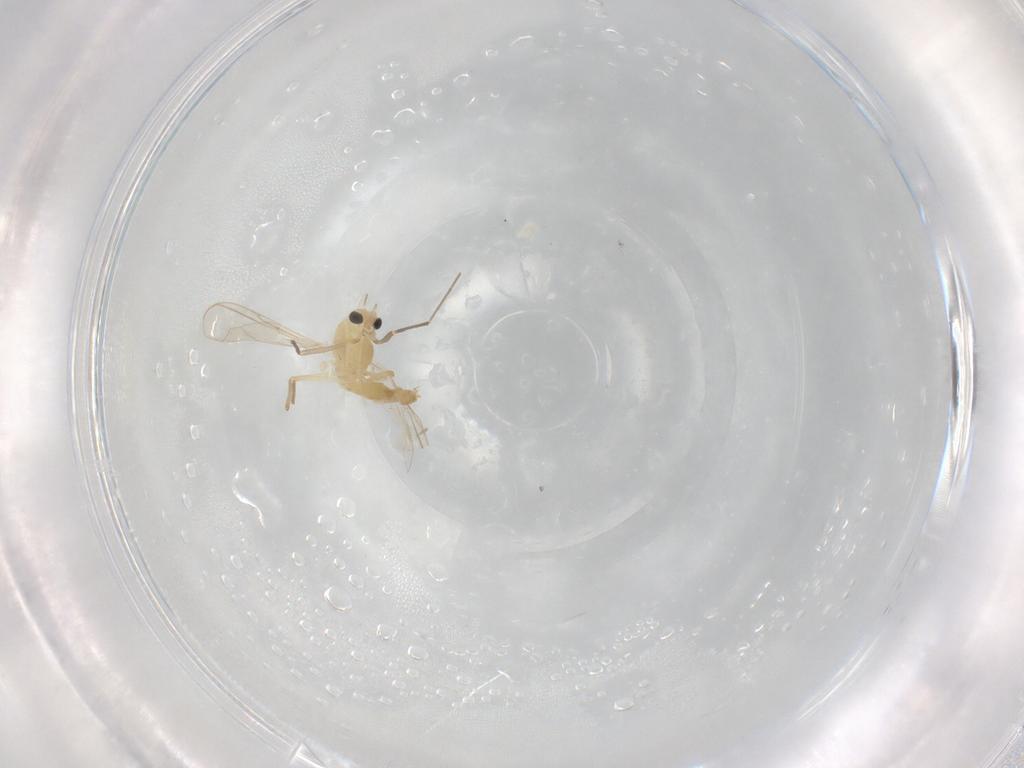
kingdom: Animalia
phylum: Arthropoda
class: Insecta
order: Diptera
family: Chironomidae
